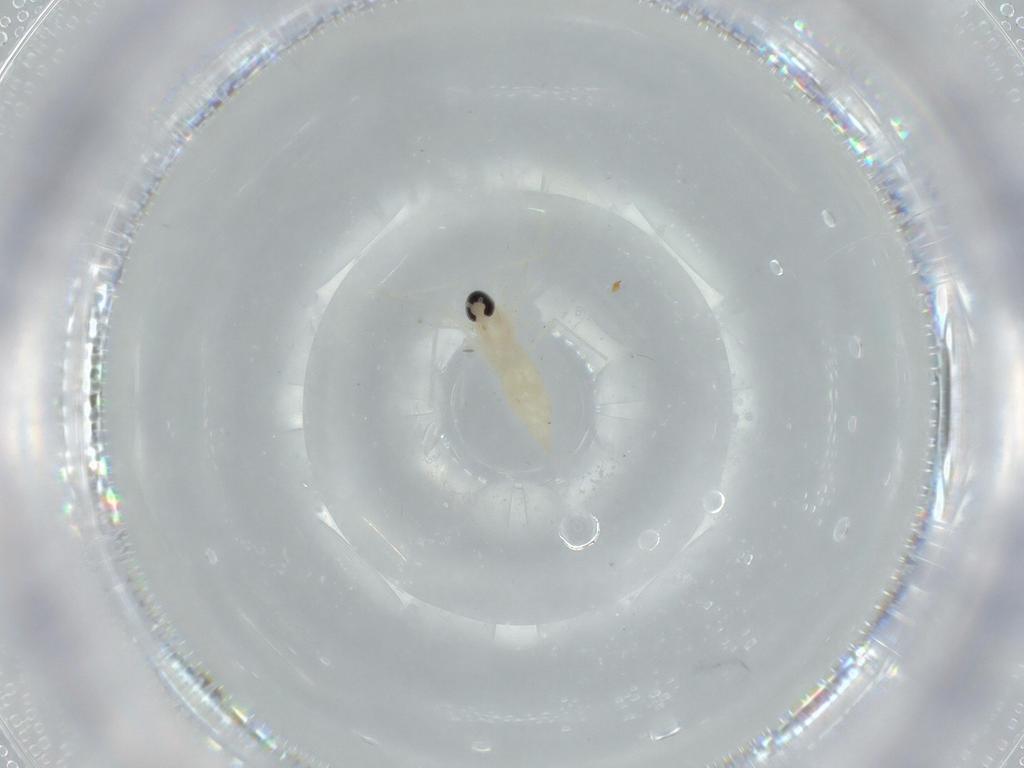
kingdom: Animalia
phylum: Arthropoda
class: Insecta
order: Diptera
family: Cecidomyiidae
